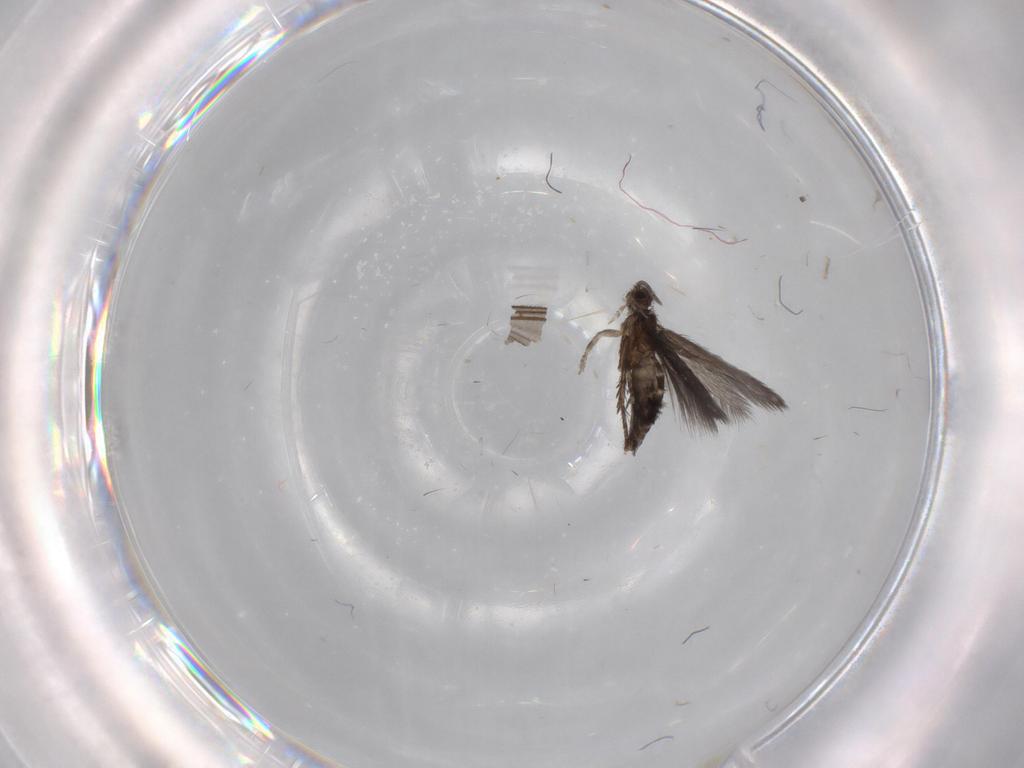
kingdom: Animalia
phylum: Arthropoda
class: Insecta
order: Trichoptera
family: Hydroptilidae
